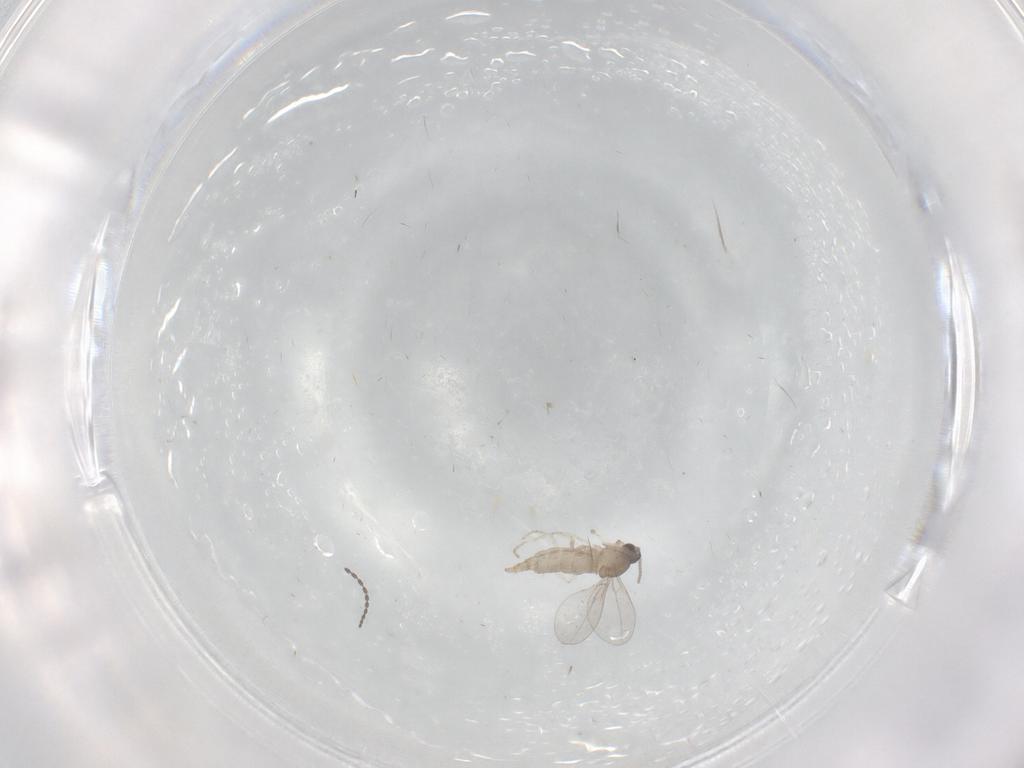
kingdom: Animalia
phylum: Arthropoda
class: Insecta
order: Diptera
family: Cecidomyiidae
